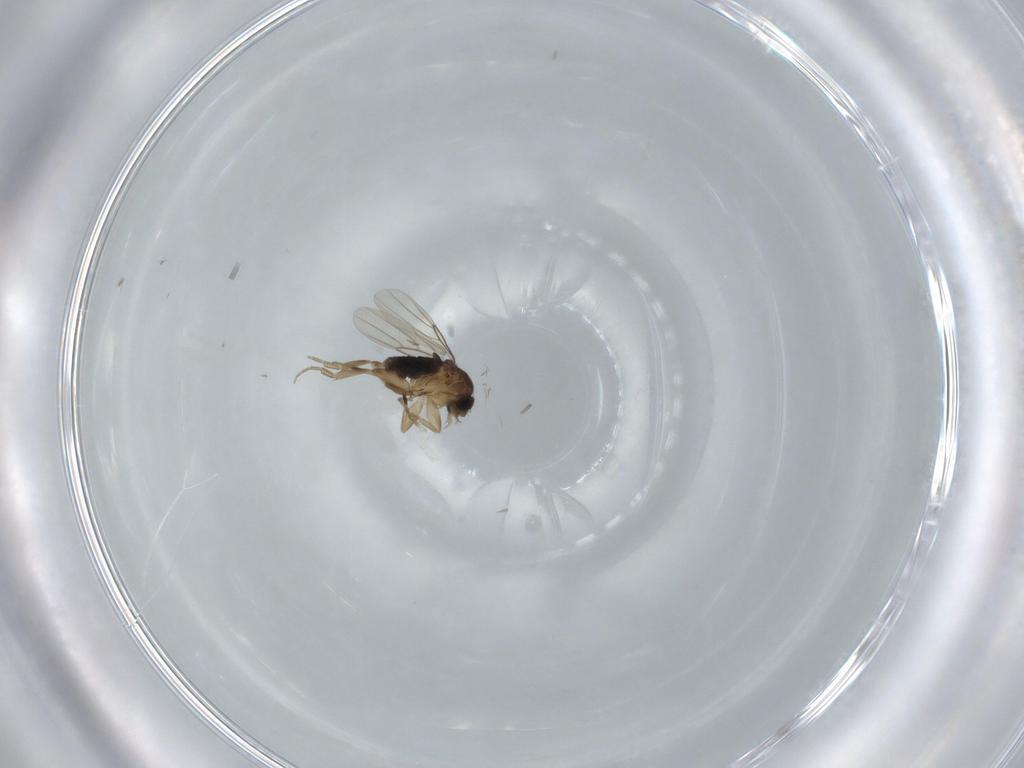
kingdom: Animalia
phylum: Arthropoda
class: Insecta
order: Diptera
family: Phoridae
